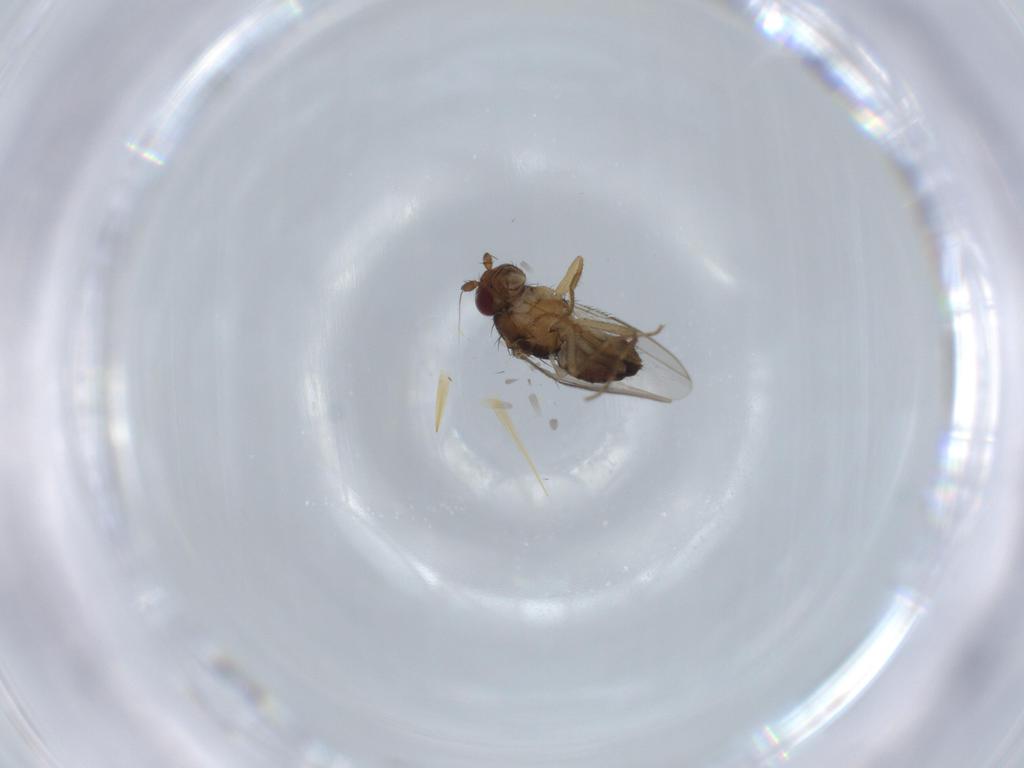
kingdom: Animalia
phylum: Arthropoda
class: Insecta
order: Diptera
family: Sphaeroceridae
